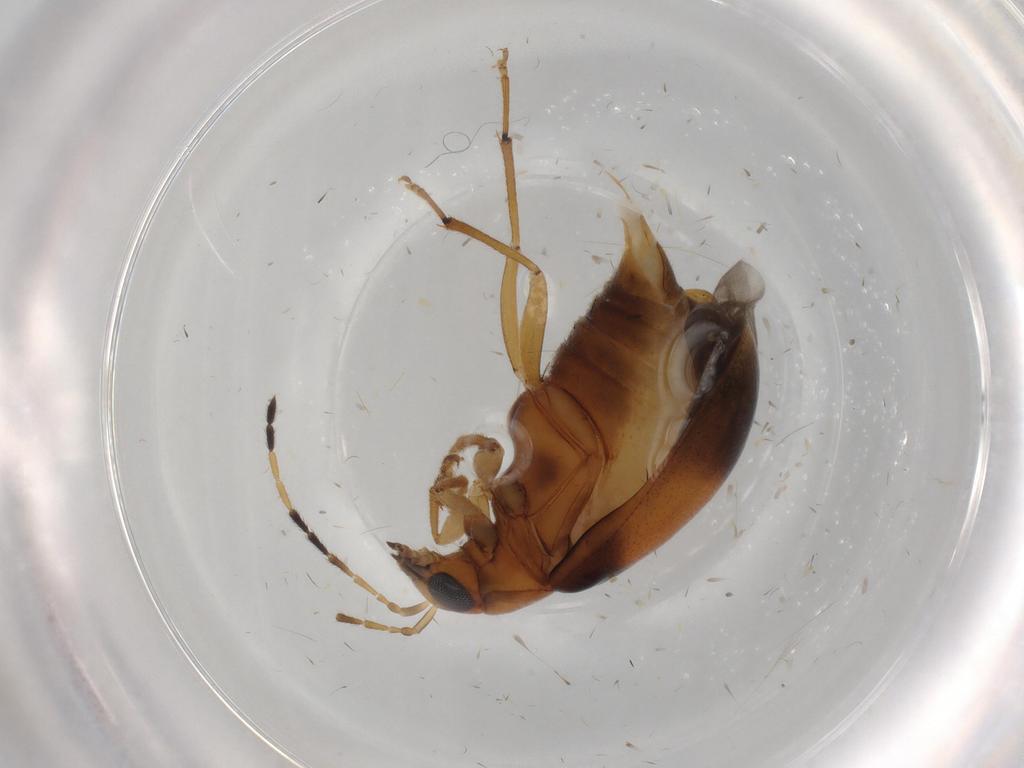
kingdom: Animalia
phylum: Arthropoda
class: Insecta
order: Coleoptera
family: Chrysomelidae
